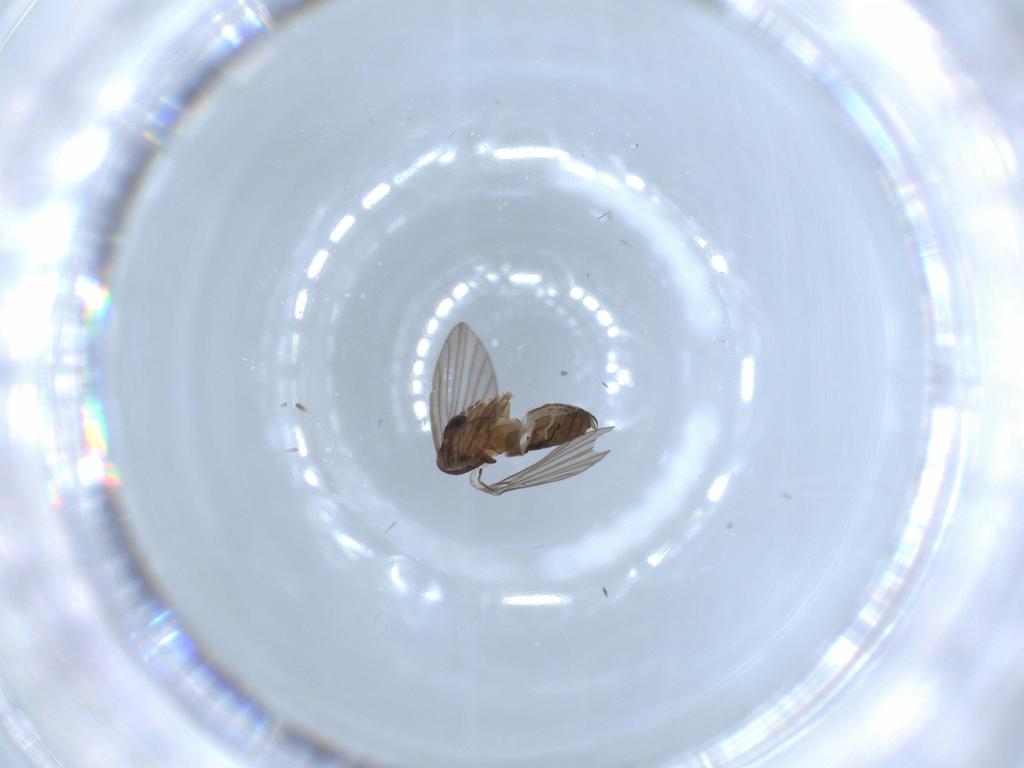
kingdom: Animalia
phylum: Arthropoda
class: Insecta
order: Diptera
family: Psychodidae
